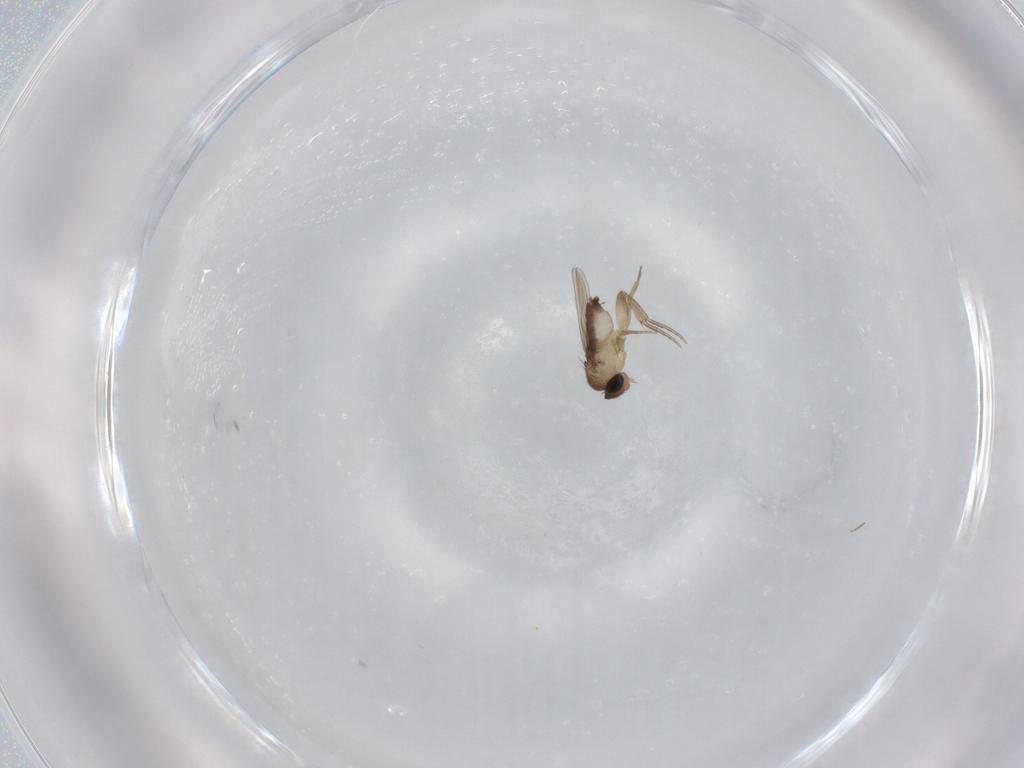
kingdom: Animalia
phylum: Arthropoda
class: Insecta
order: Diptera
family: Phoridae
